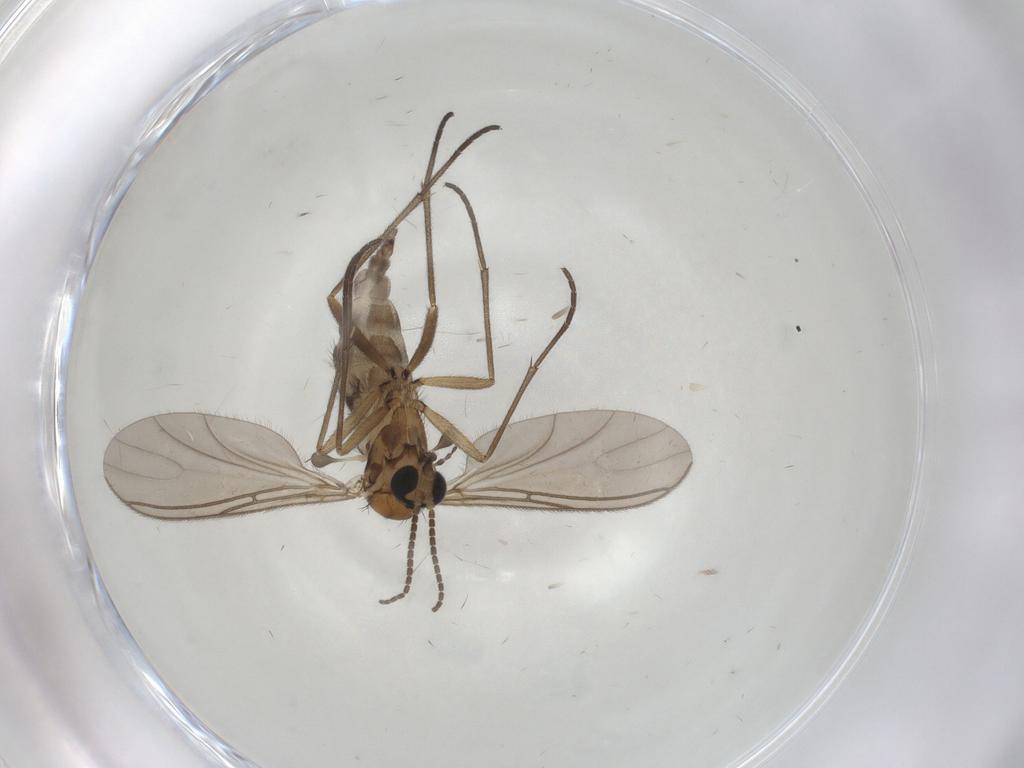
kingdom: Animalia
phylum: Arthropoda
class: Insecta
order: Diptera
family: Sciaridae
